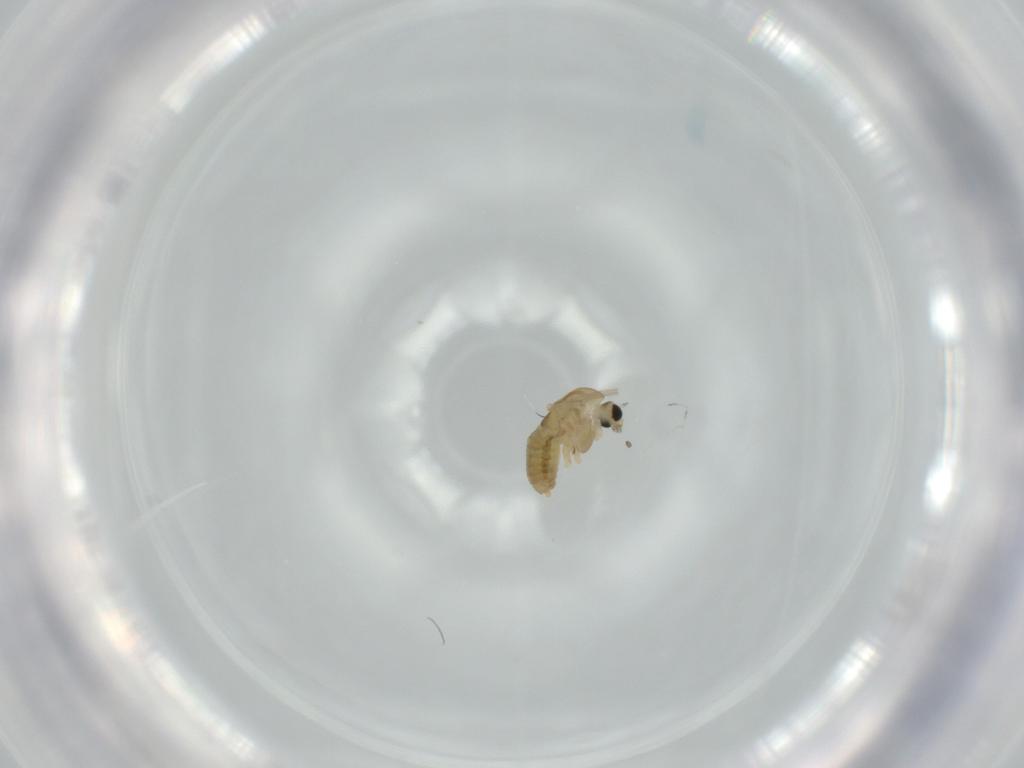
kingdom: Animalia
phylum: Arthropoda
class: Insecta
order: Diptera
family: Chironomidae
